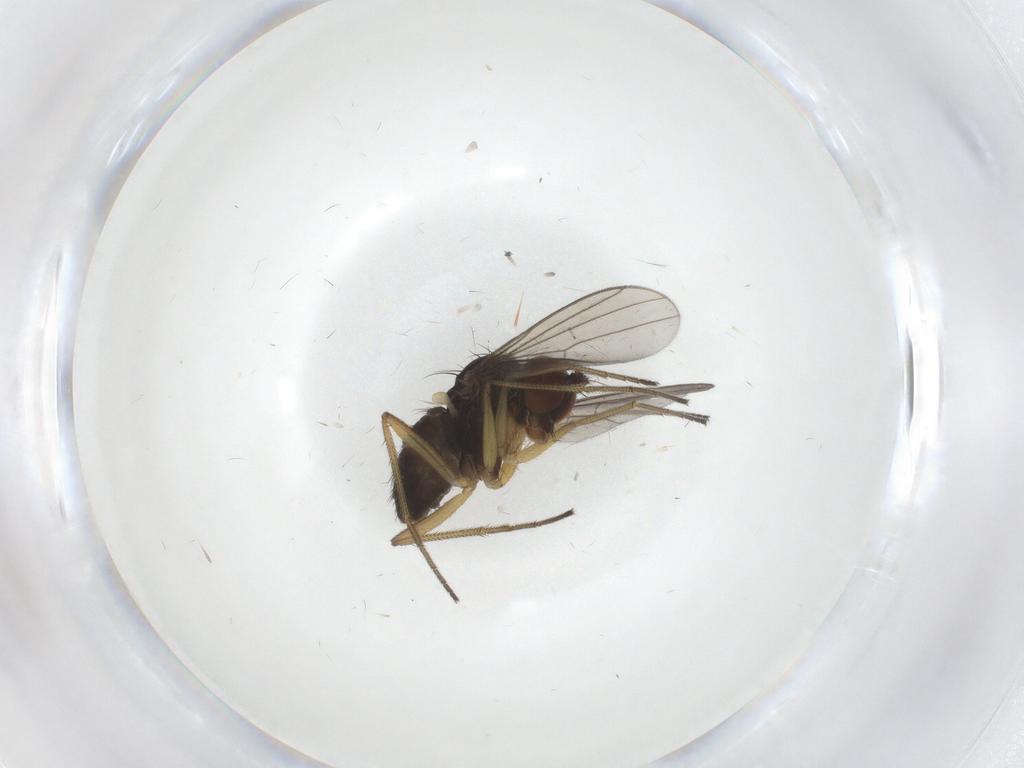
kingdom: Animalia
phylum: Arthropoda
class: Insecta
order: Diptera
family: Dolichopodidae
